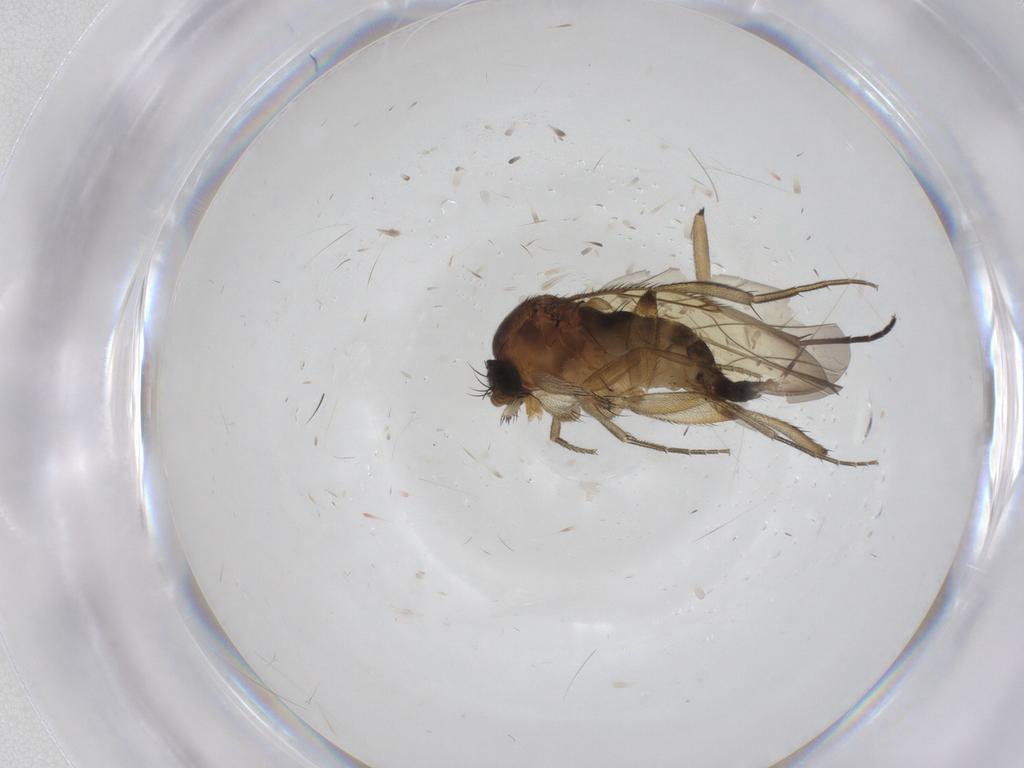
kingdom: Animalia
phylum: Arthropoda
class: Insecta
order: Diptera
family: Phoridae
